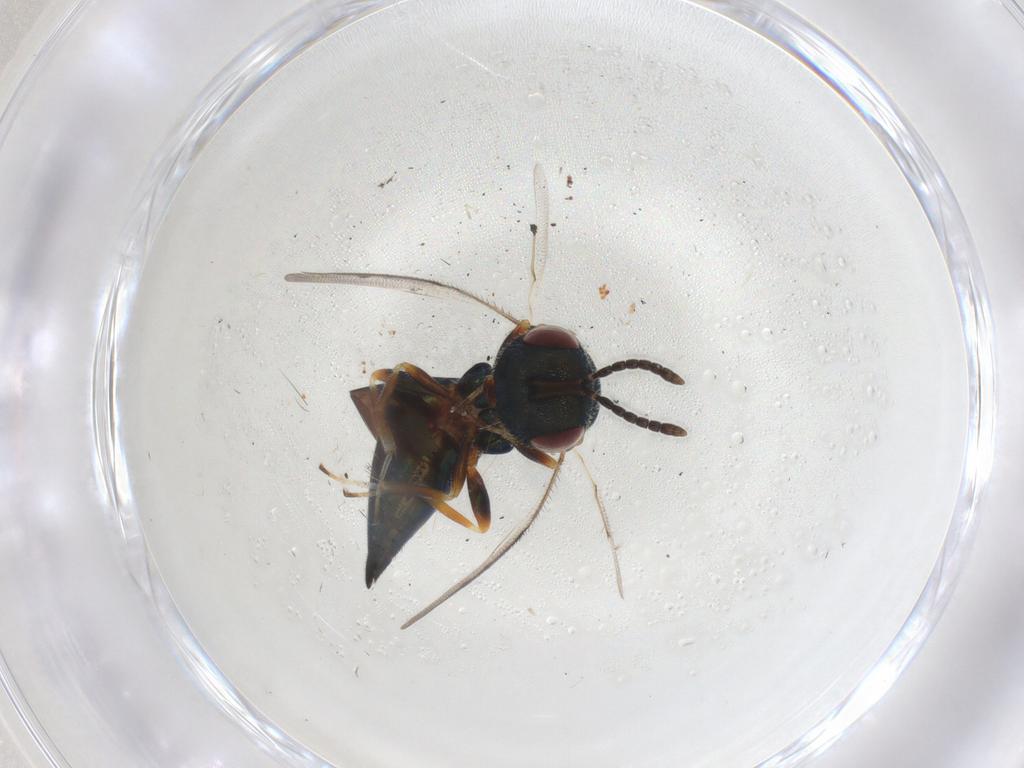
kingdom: Animalia
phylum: Arthropoda
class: Insecta
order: Hymenoptera
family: Pteromalidae
